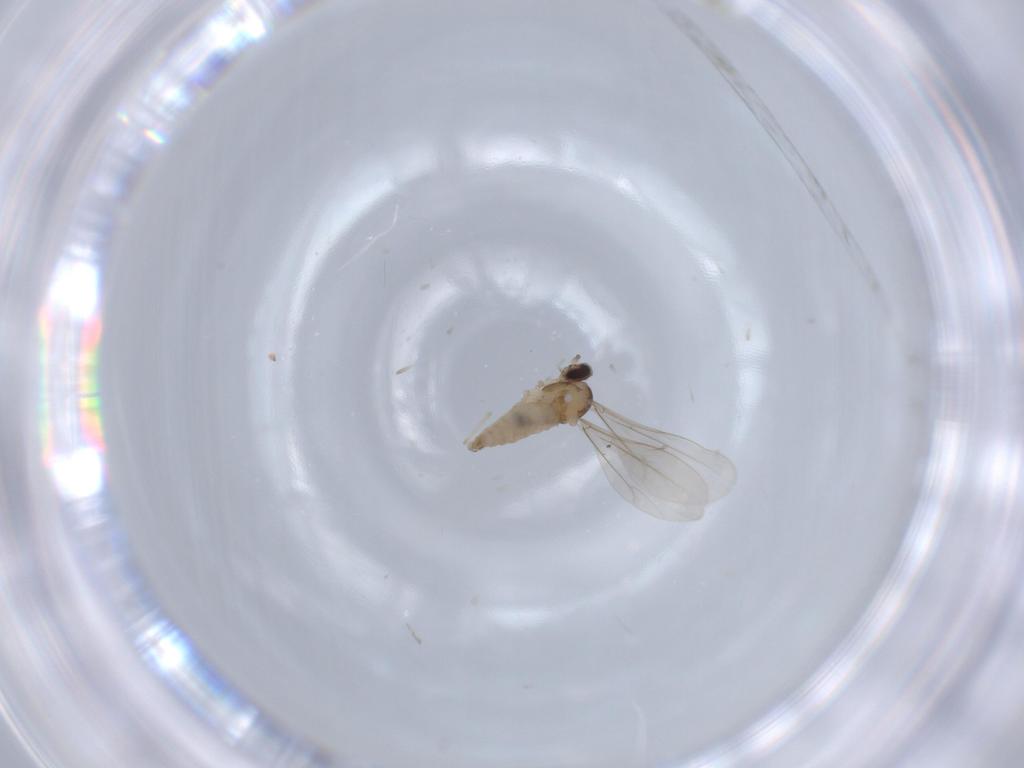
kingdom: Animalia
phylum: Arthropoda
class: Insecta
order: Diptera
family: Cecidomyiidae
